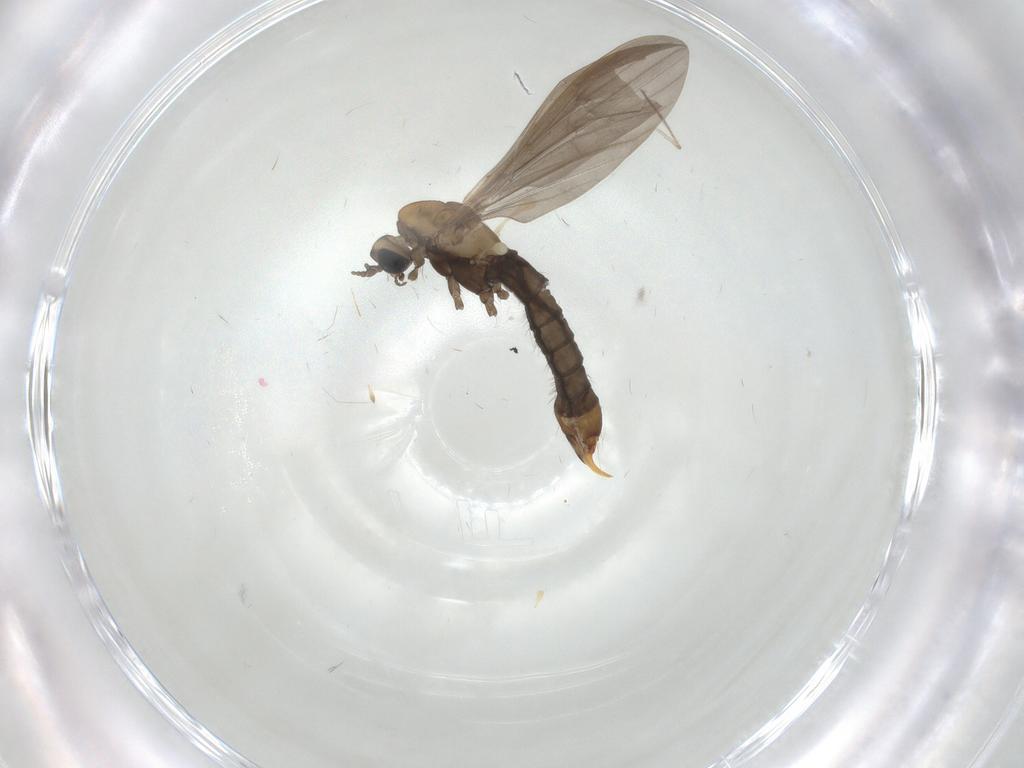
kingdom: Animalia
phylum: Arthropoda
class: Insecta
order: Diptera
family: Limoniidae
